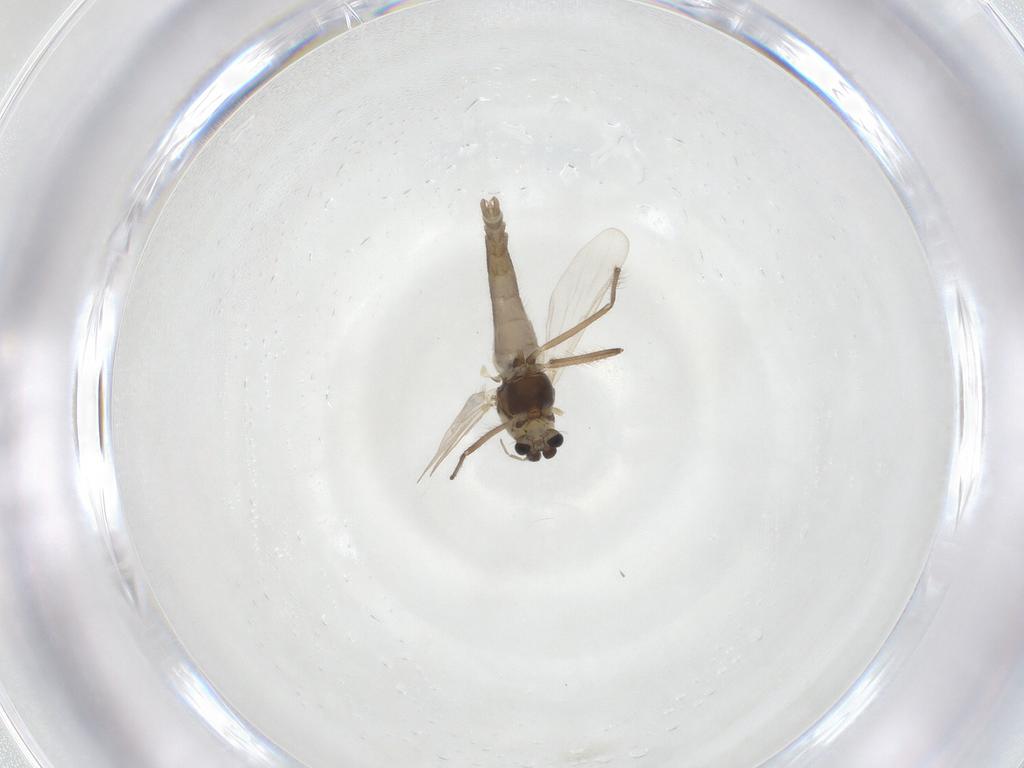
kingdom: Animalia
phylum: Arthropoda
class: Insecta
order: Diptera
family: Chironomidae
